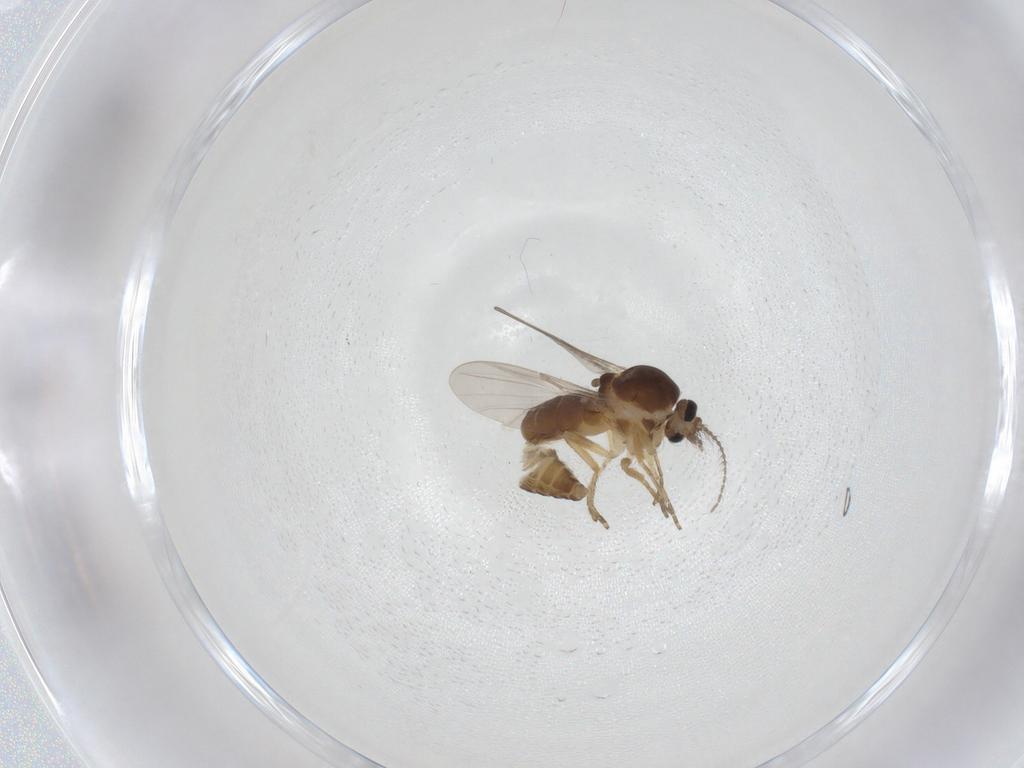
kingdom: Animalia
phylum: Arthropoda
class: Insecta
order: Diptera
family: Ceratopogonidae
